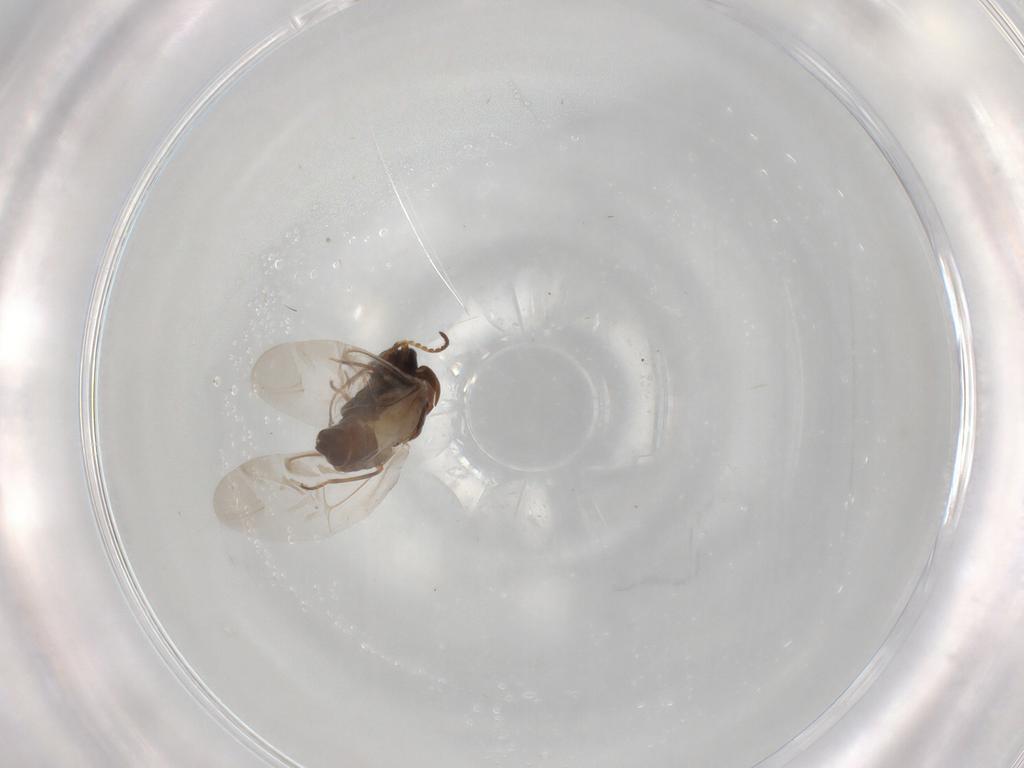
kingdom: Animalia
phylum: Arthropoda
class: Insecta
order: Coleoptera
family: Melyridae
